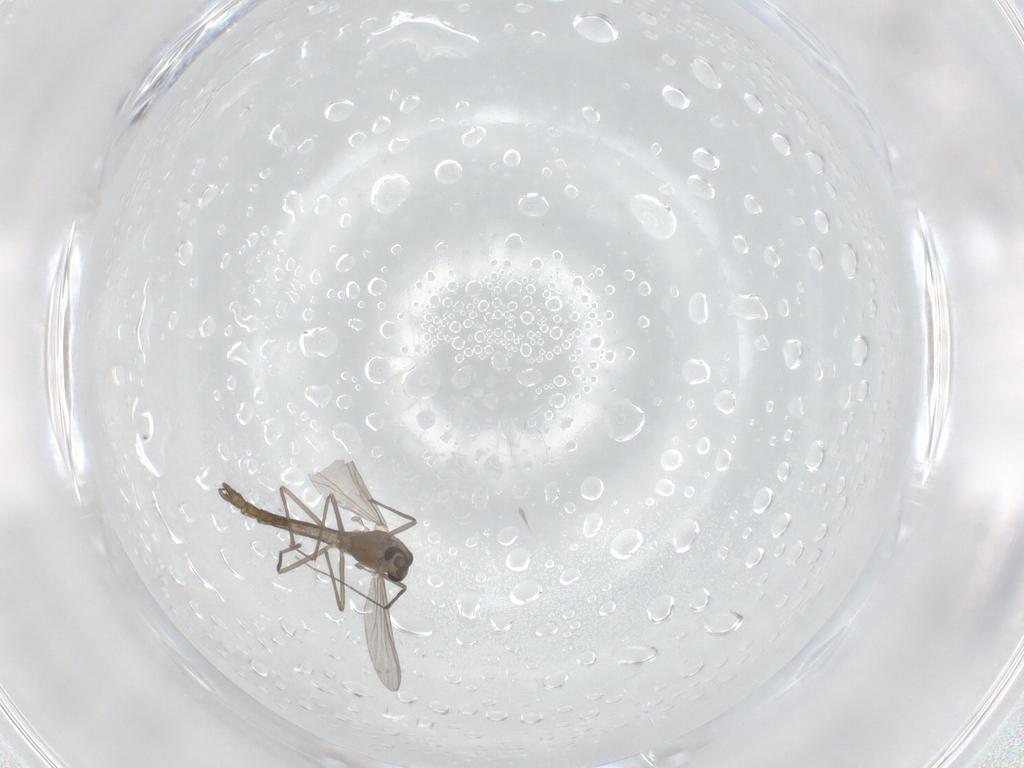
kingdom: Animalia
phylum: Arthropoda
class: Insecta
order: Diptera
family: Chironomidae
